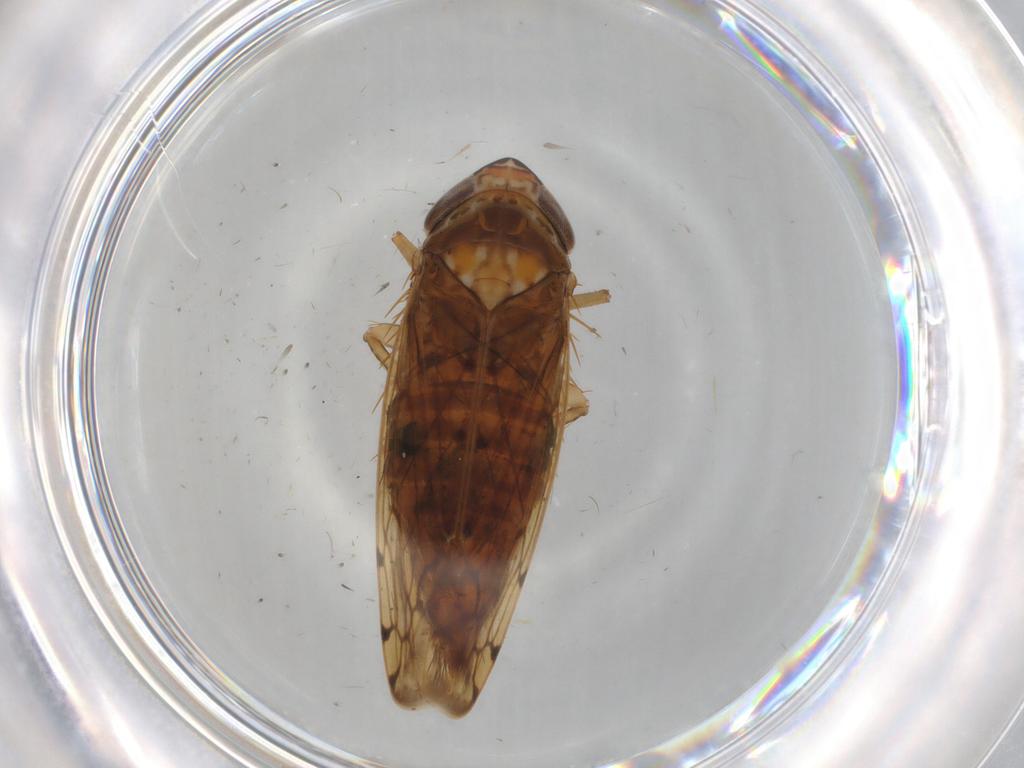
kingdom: Animalia
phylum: Arthropoda
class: Insecta
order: Hemiptera
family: Cicadellidae
